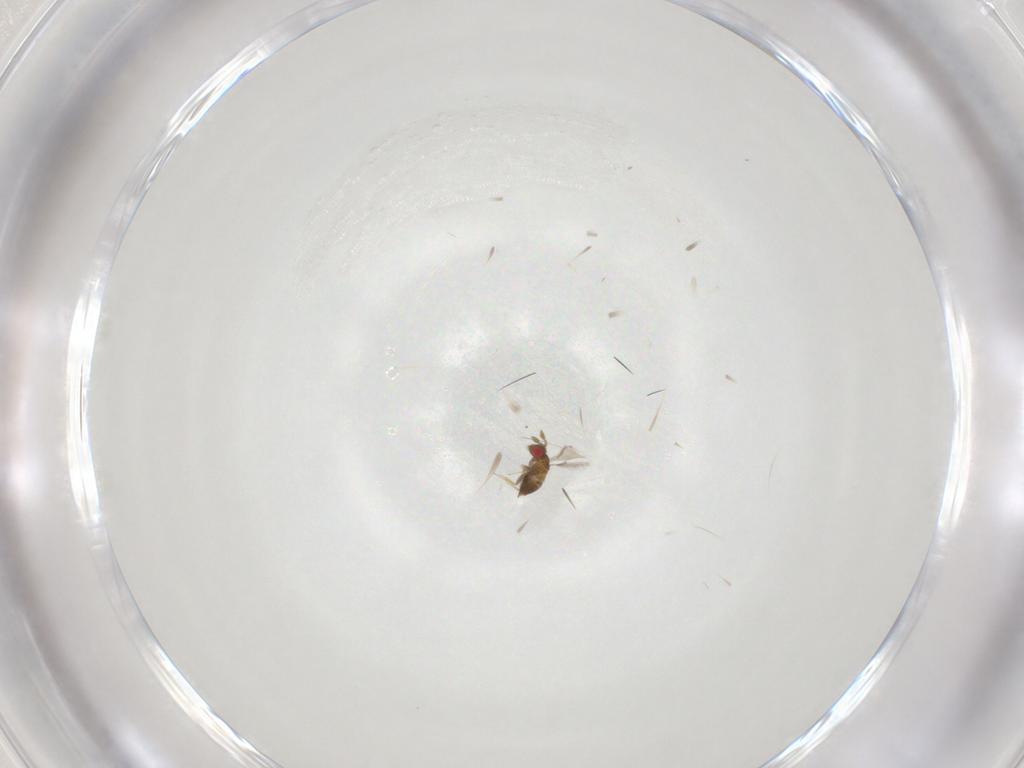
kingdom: Animalia
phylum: Arthropoda
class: Insecta
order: Hymenoptera
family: Trichogrammatidae
